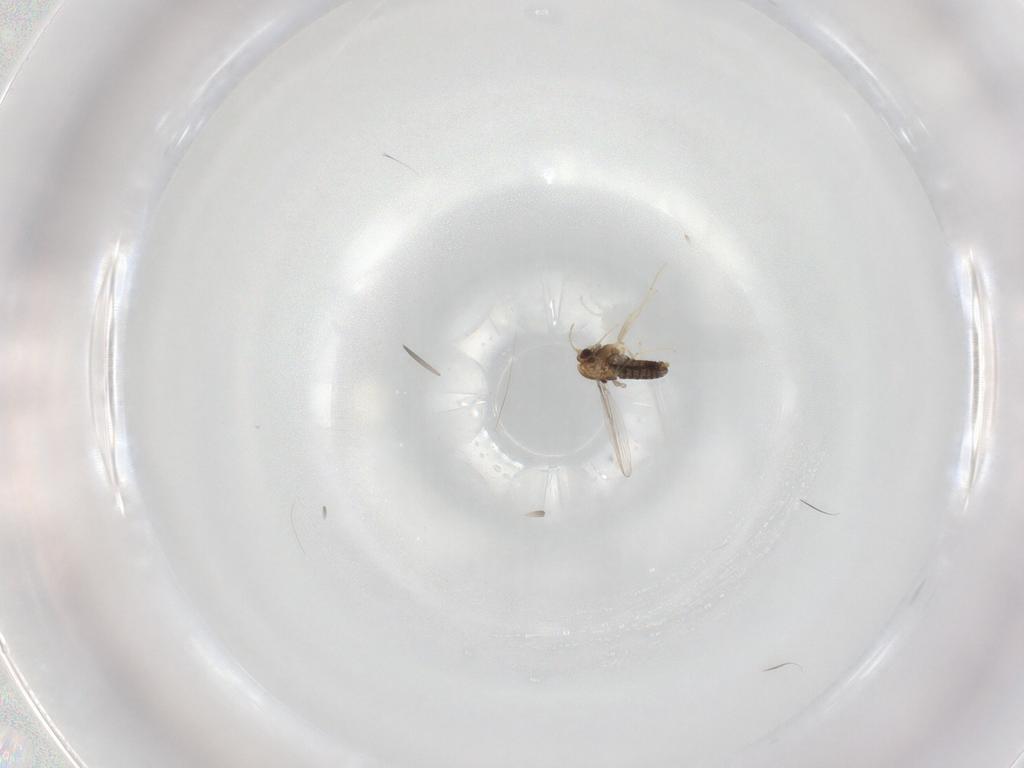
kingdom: Animalia
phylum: Arthropoda
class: Insecta
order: Diptera
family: Chironomidae
